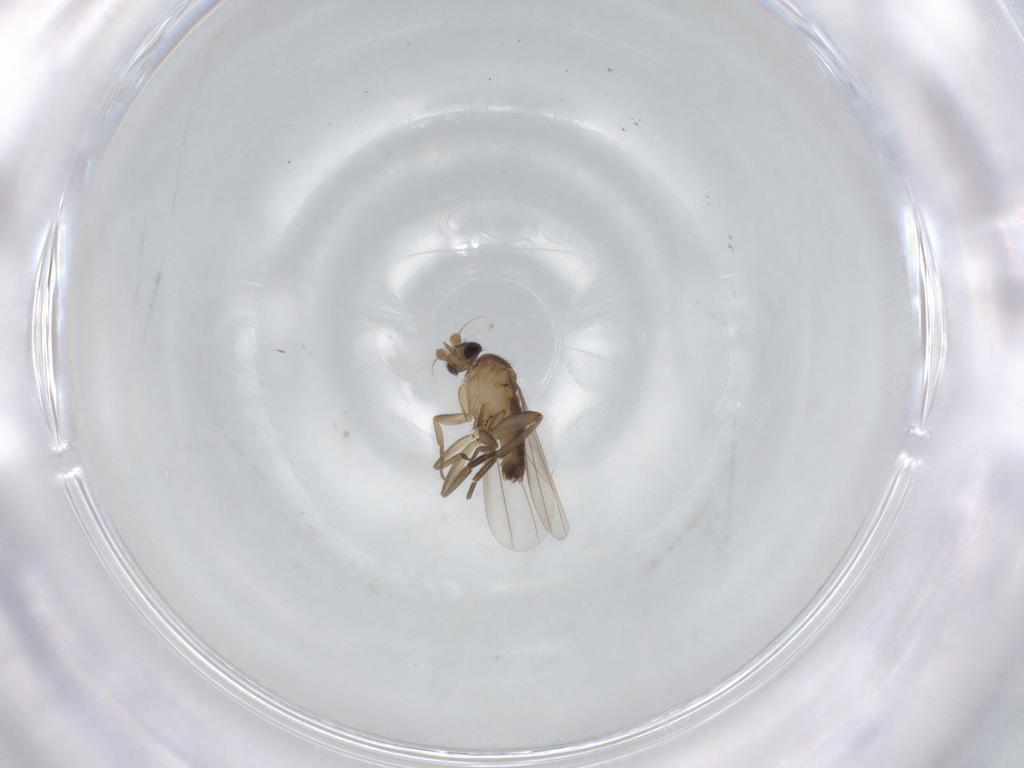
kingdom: Animalia
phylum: Arthropoda
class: Insecta
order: Diptera
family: Phoridae
